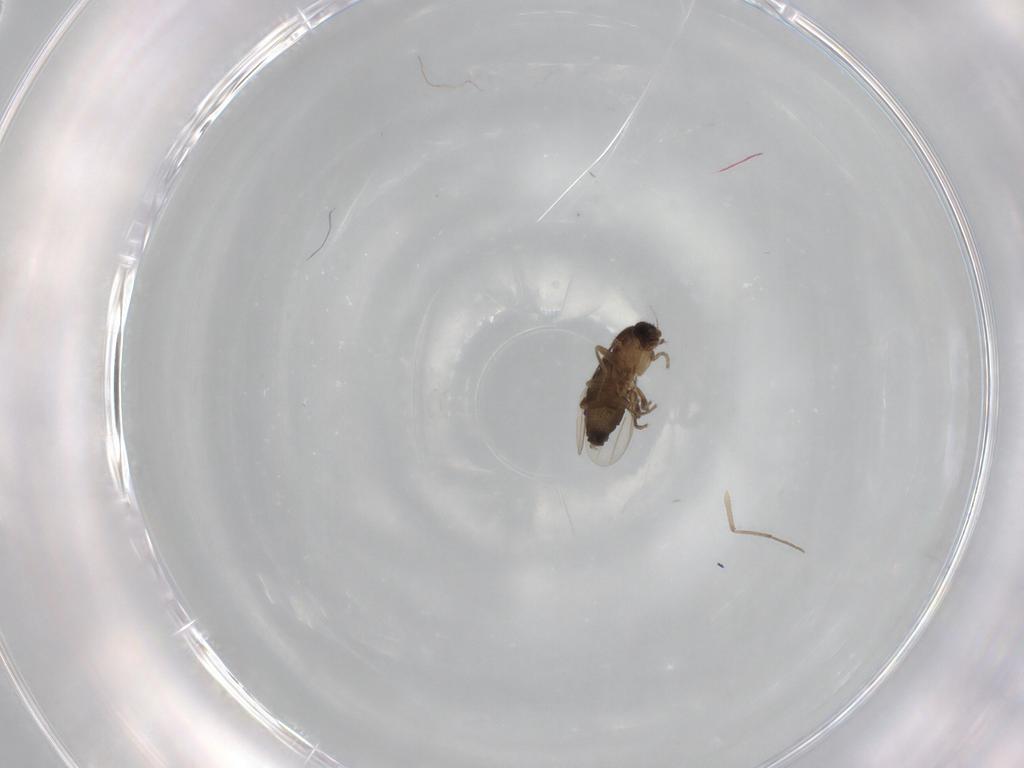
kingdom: Animalia
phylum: Arthropoda
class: Insecta
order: Diptera
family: Phoridae
